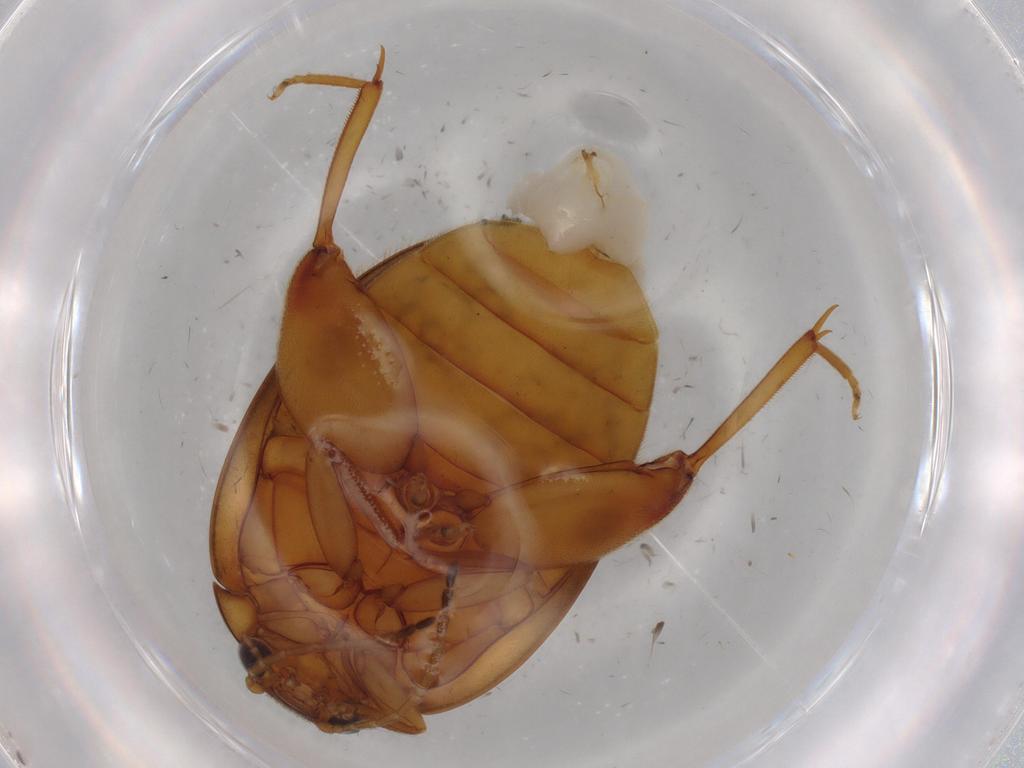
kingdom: Animalia
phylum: Arthropoda
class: Insecta
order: Coleoptera
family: Scirtidae
